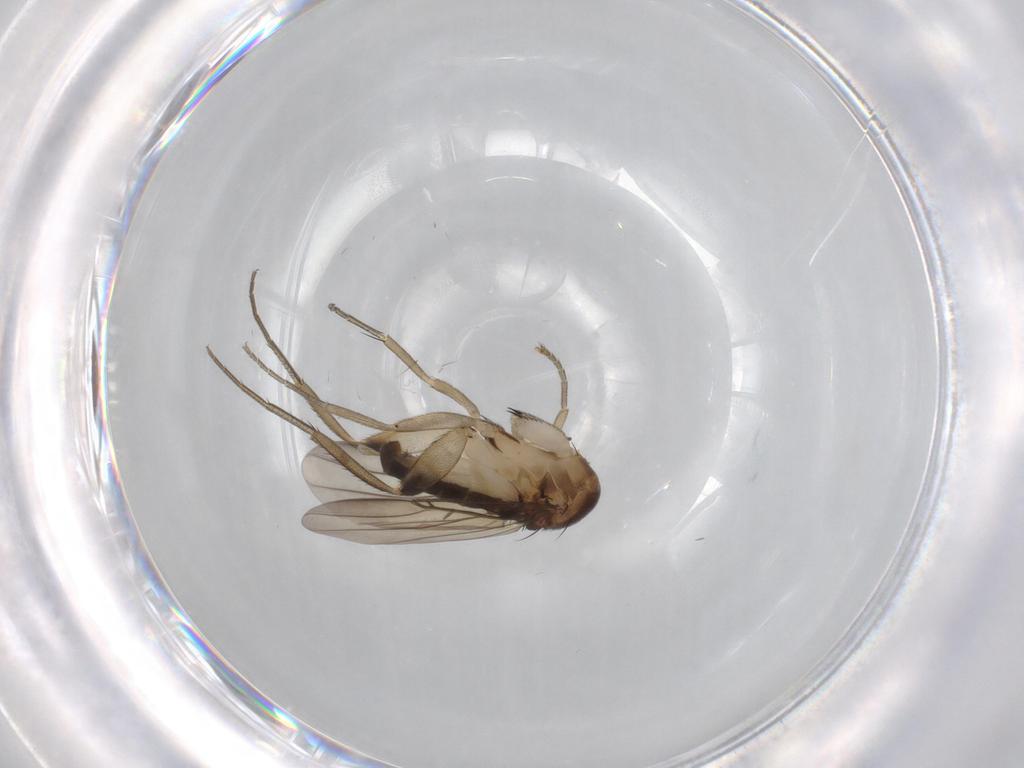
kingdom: Animalia
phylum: Arthropoda
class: Insecta
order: Diptera
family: Phoridae
